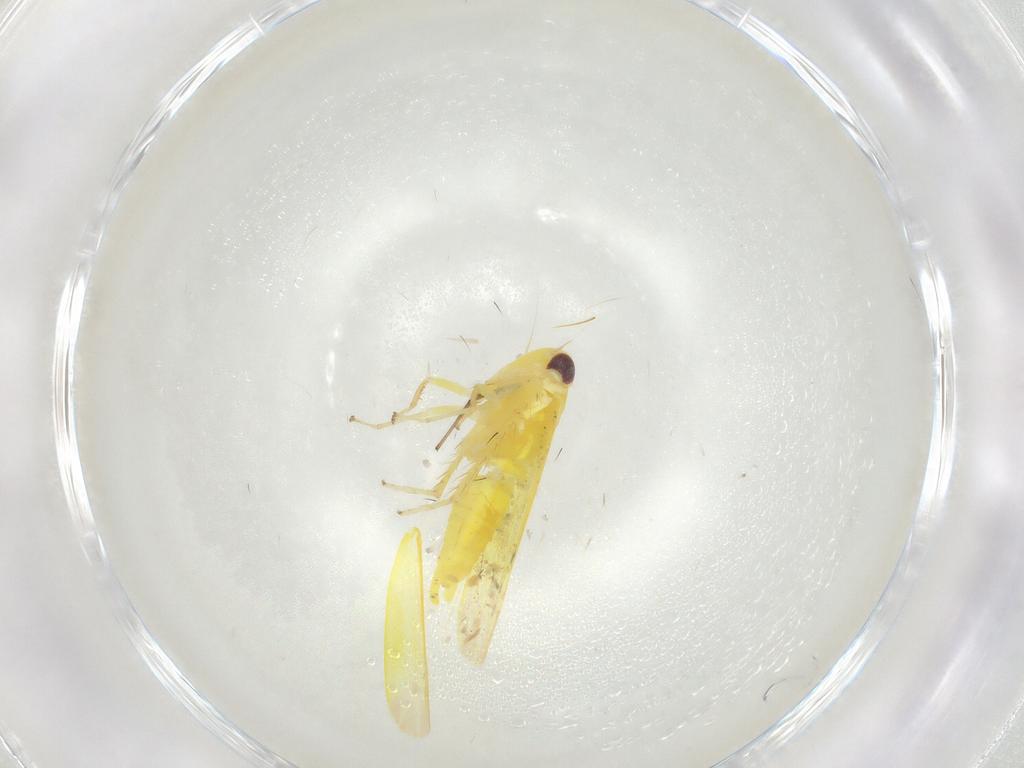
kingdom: Animalia
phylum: Arthropoda
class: Insecta
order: Hemiptera
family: Cicadellidae
